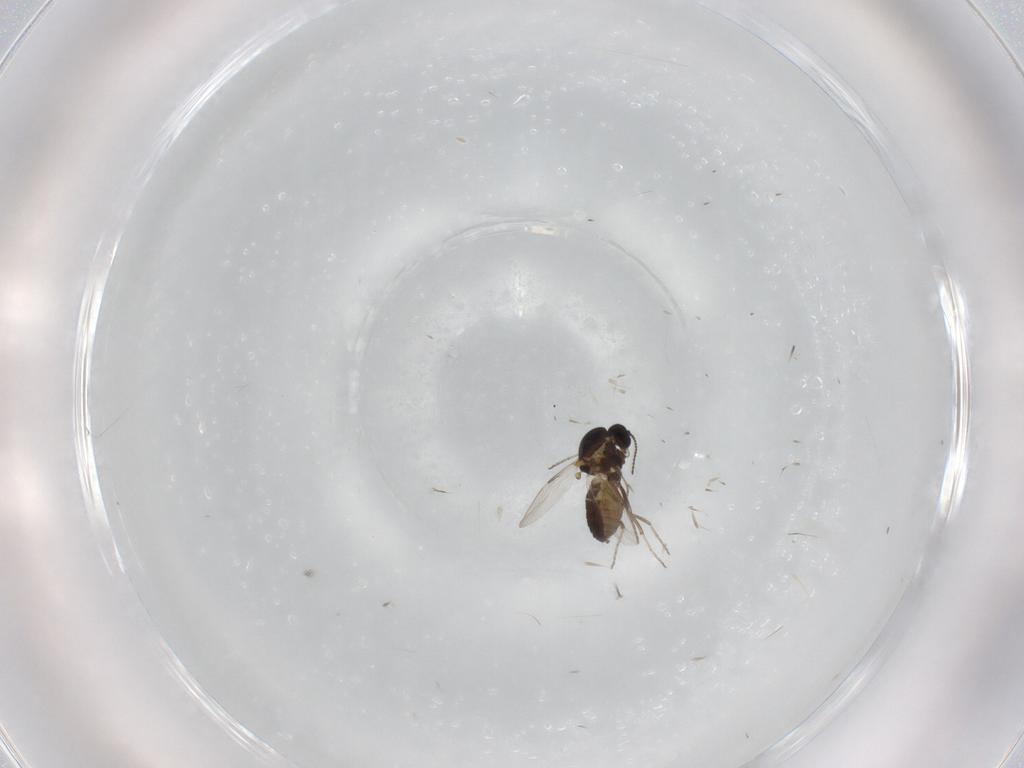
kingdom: Animalia
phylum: Arthropoda
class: Insecta
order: Diptera
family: Ceratopogonidae
